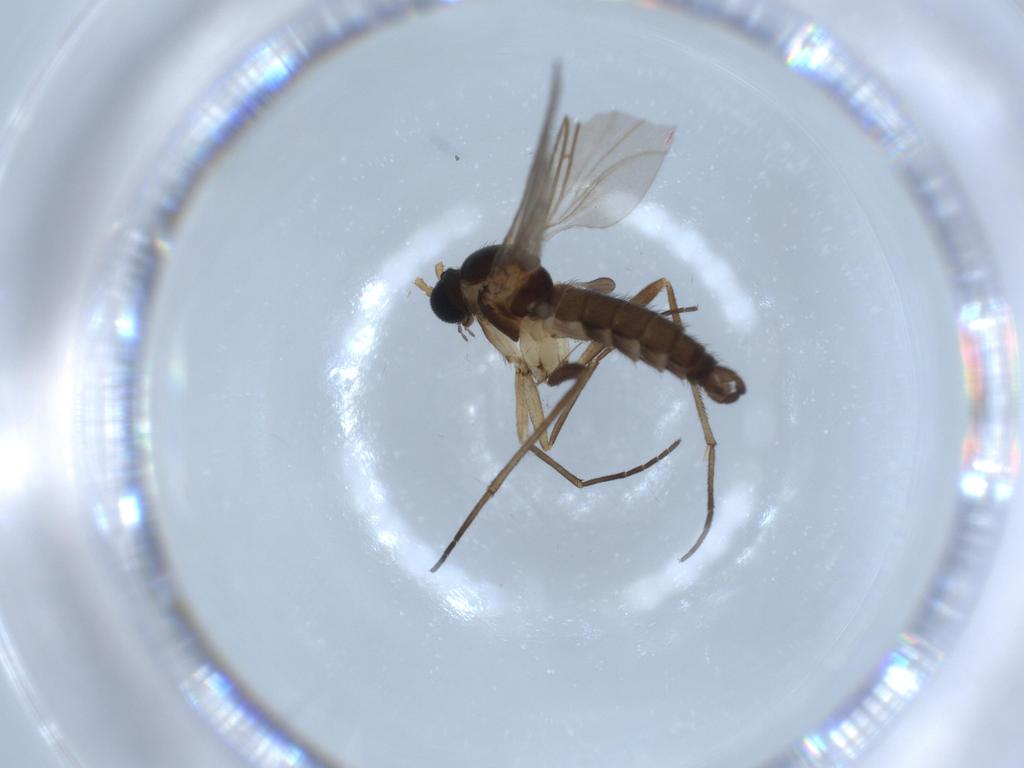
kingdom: Animalia
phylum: Arthropoda
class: Insecta
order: Diptera
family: Sciaridae
